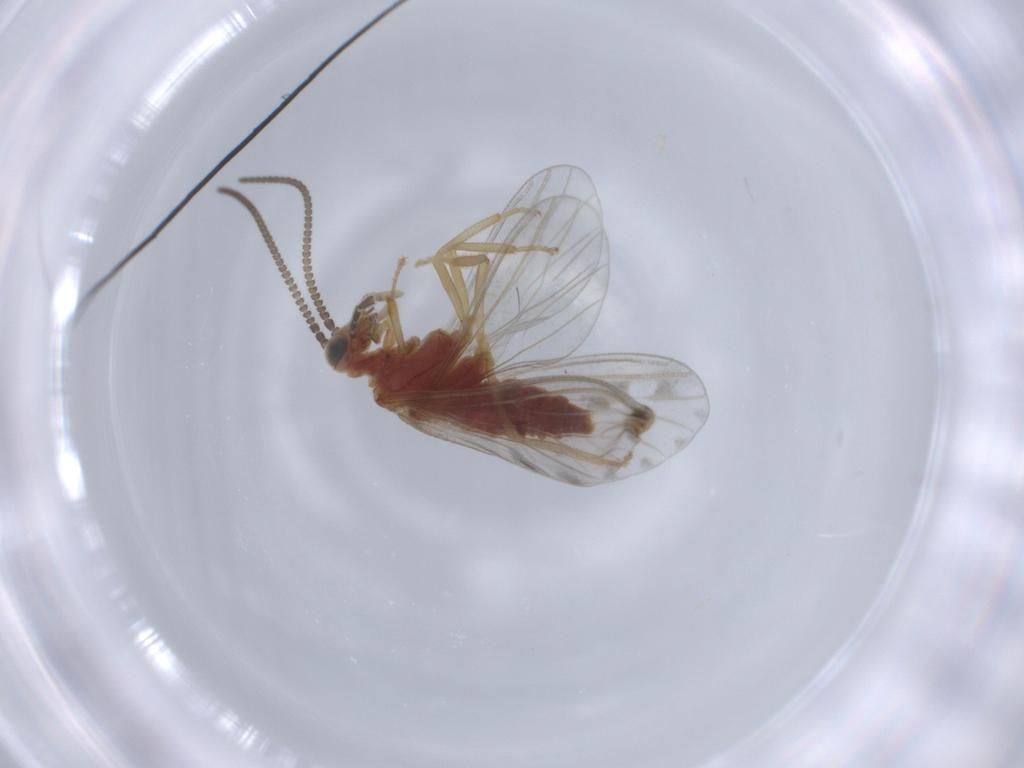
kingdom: Animalia
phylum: Arthropoda
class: Insecta
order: Neuroptera
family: Coniopterygidae
